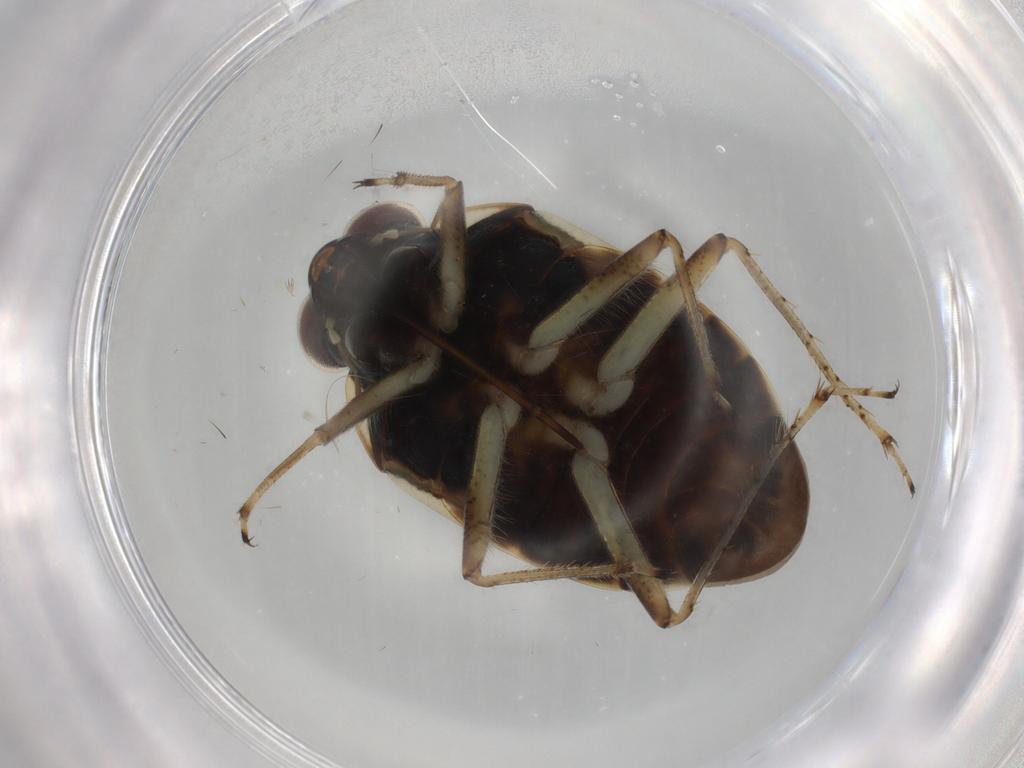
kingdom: Animalia
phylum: Arthropoda
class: Insecta
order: Hemiptera
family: Ochteridae
